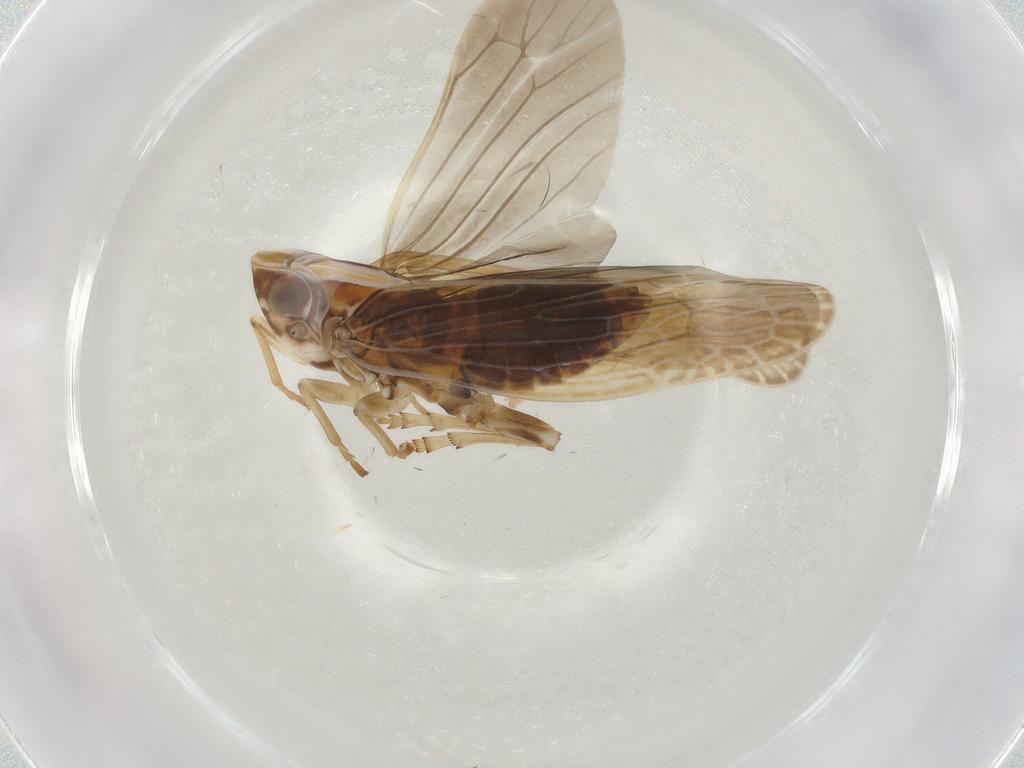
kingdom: Animalia
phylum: Arthropoda
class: Insecta
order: Hemiptera
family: Achilidae
